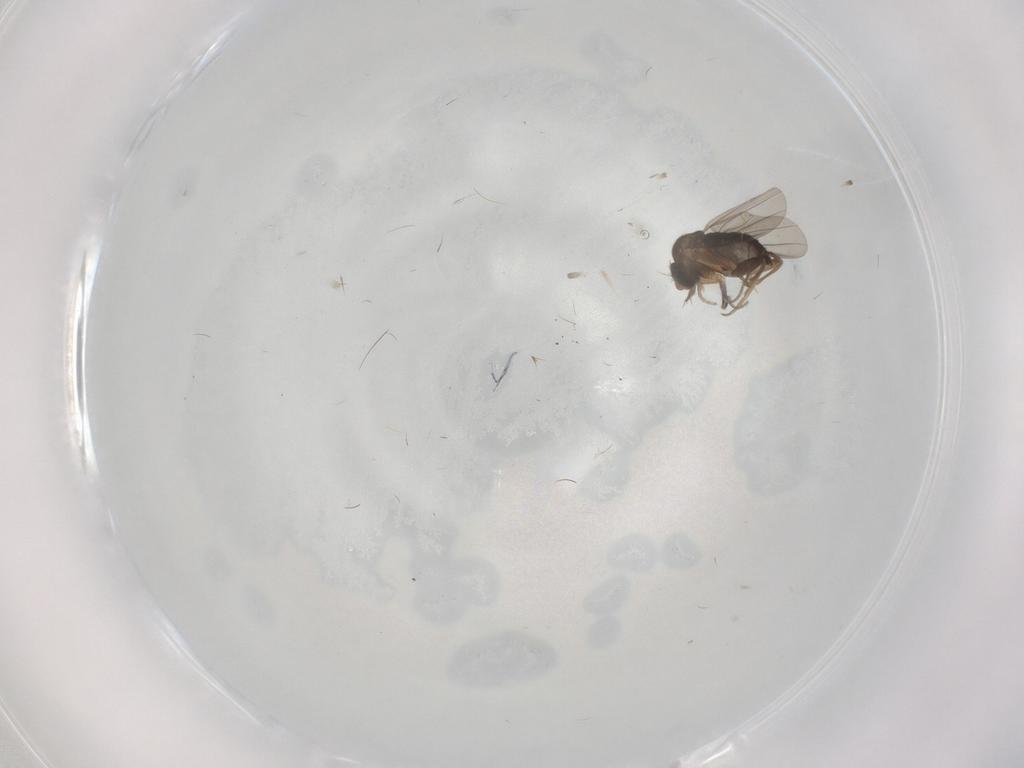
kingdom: Animalia
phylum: Arthropoda
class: Insecta
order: Diptera
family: Phoridae
